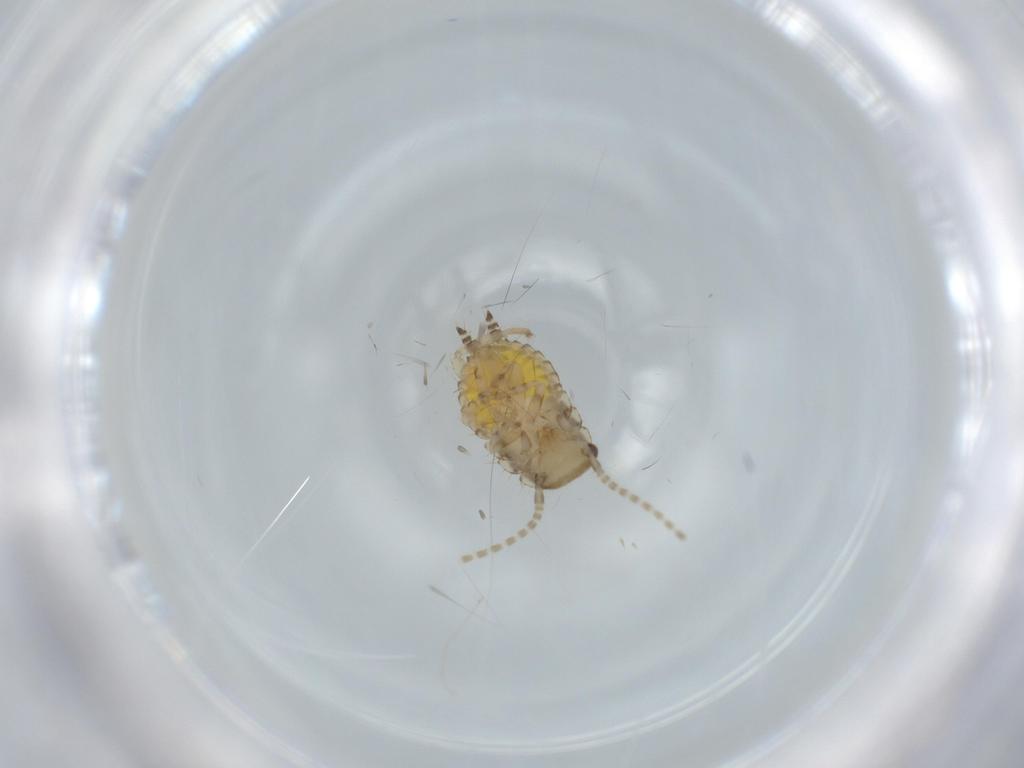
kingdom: Animalia
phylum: Arthropoda
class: Insecta
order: Blattodea
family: Ectobiidae
